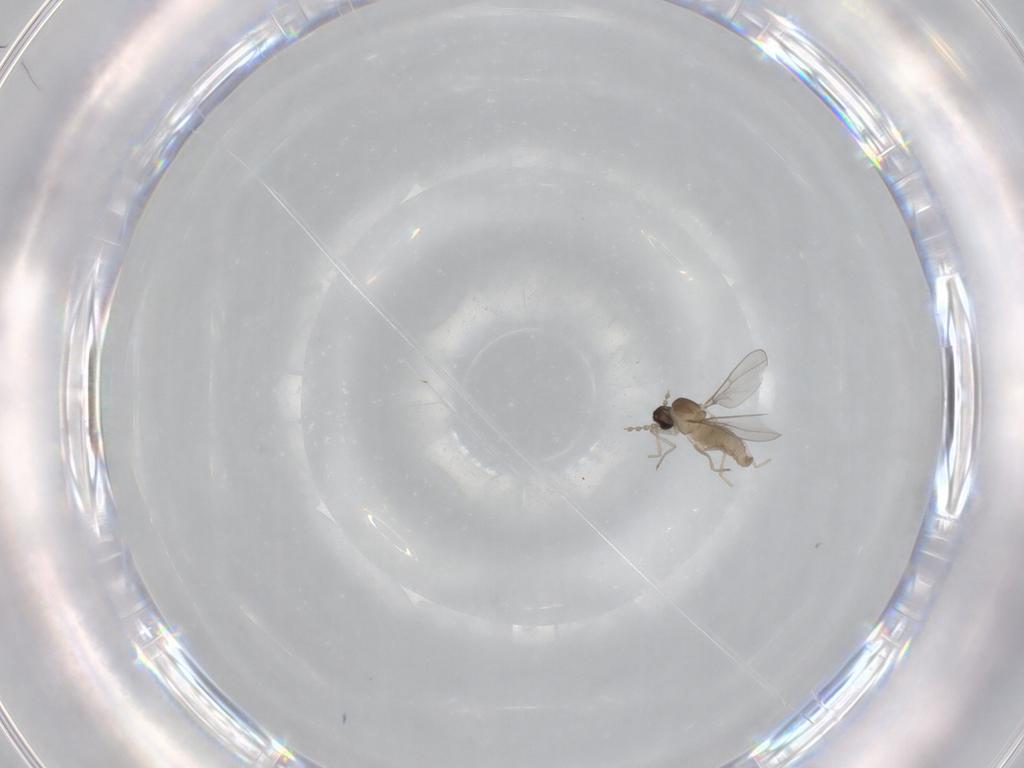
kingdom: Animalia
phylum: Arthropoda
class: Insecta
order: Diptera
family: Cecidomyiidae
